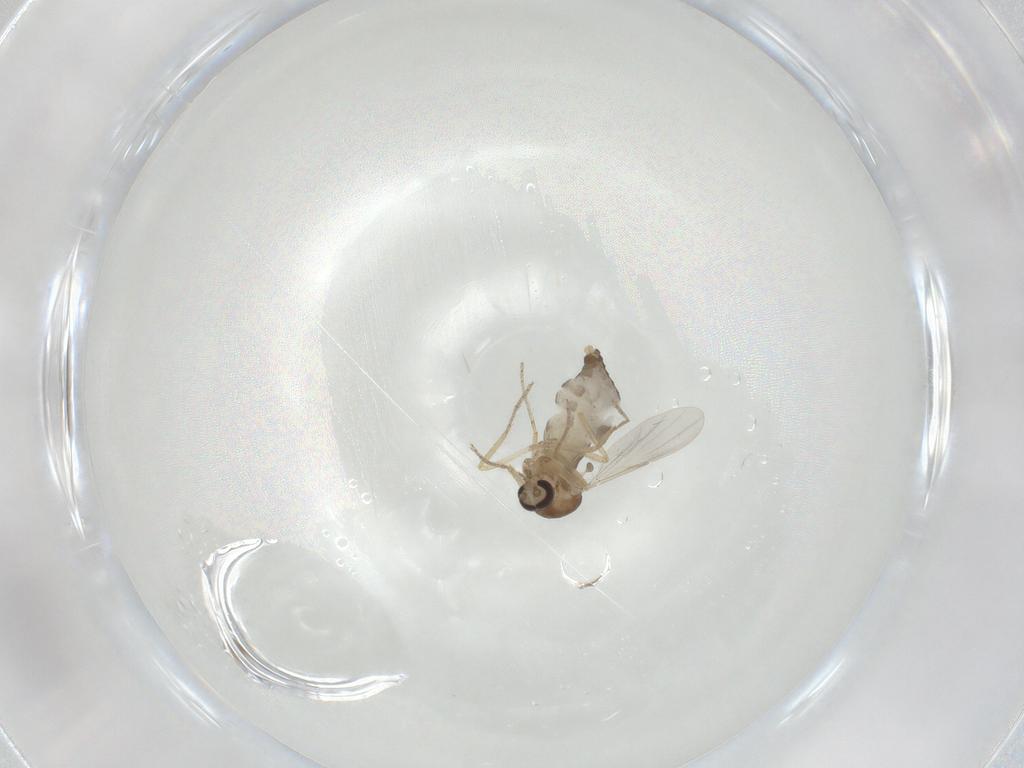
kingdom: Animalia
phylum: Arthropoda
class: Insecta
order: Diptera
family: Ceratopogonidae
